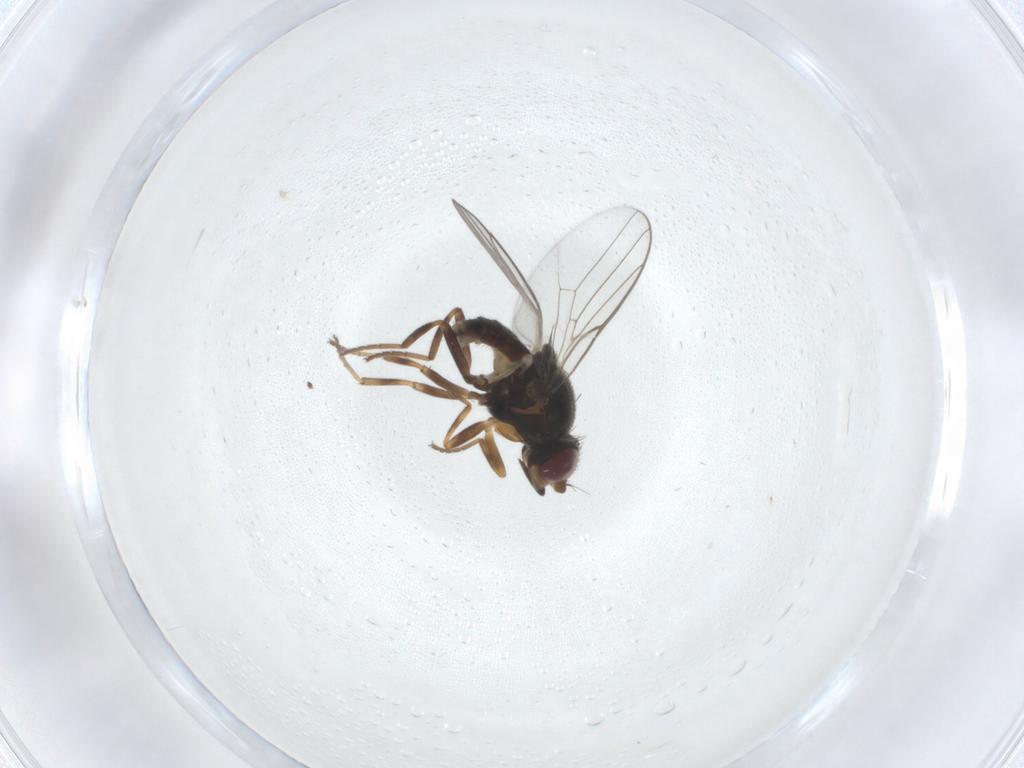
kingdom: Animalia
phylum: Arthropoda
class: Insecta
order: Diptera
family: Chloropidae
